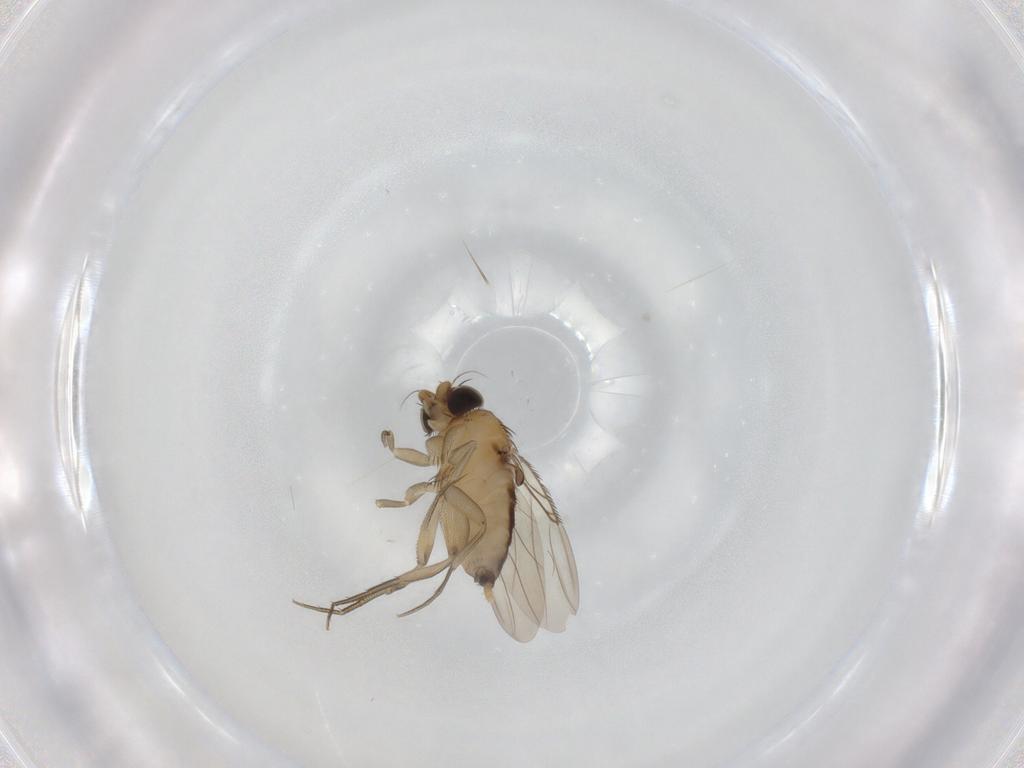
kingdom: Animalia
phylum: Arthropoda
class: Insecta
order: Diptera
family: Phoridae
